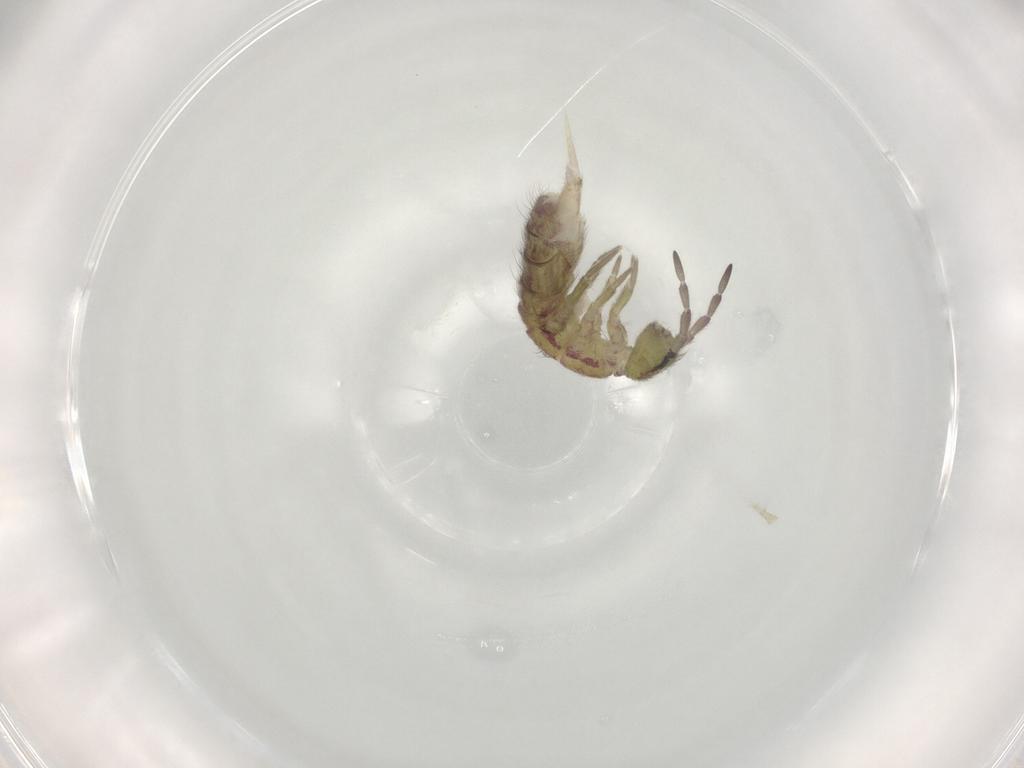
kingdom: Animalia
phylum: Arthropoda
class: Collembola
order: Entomobryomorpha
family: Isotomidae
